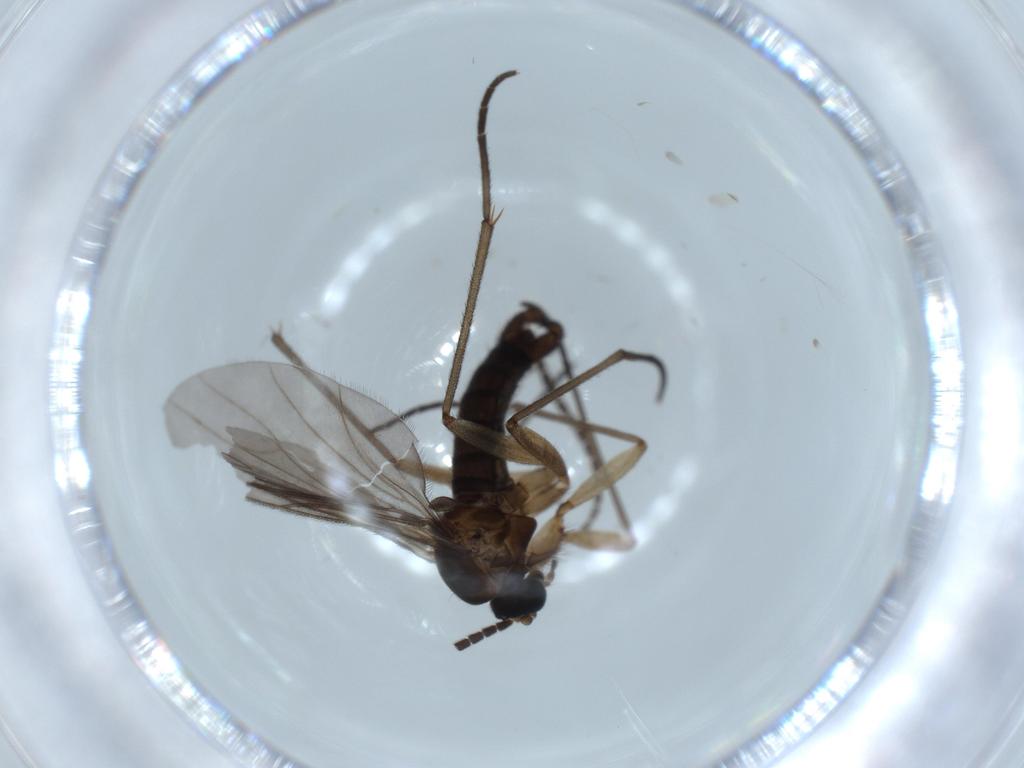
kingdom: Animalia
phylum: Arthropoda
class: Insecta
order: Diptera
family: Sciaridae
